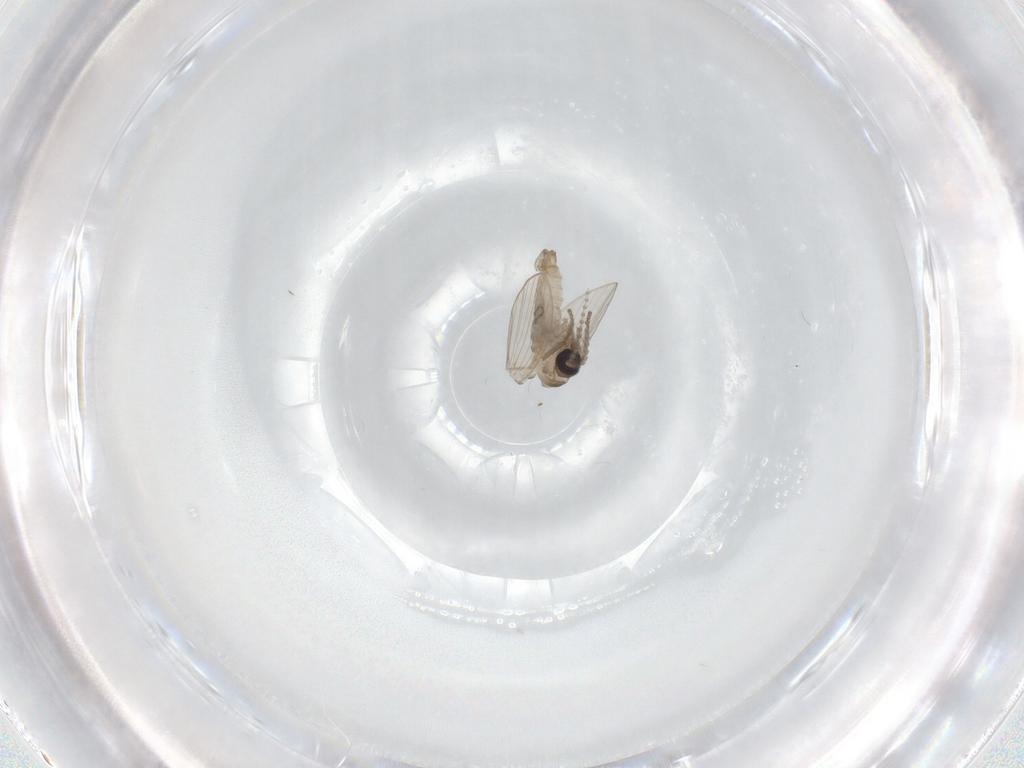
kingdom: Animalia
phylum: Arthropoda
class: Insecta
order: Diptera
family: Psychodidae
